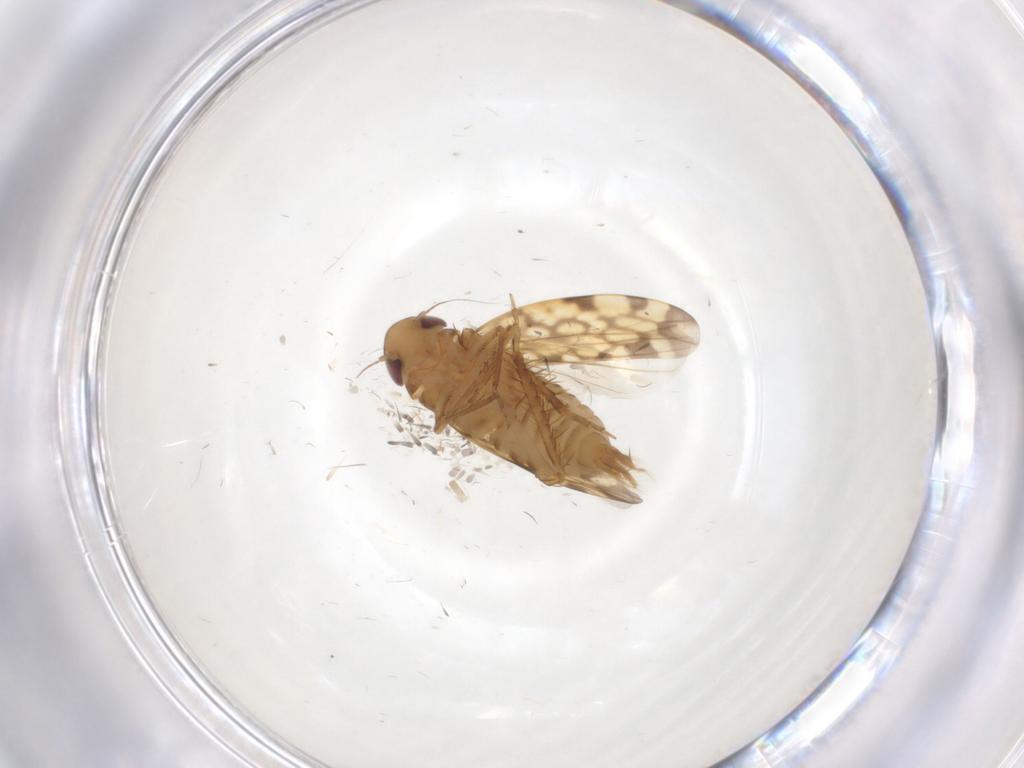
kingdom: Animalia
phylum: Arthropoda
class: Insecta
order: Hemiptera
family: Cicadellidae
